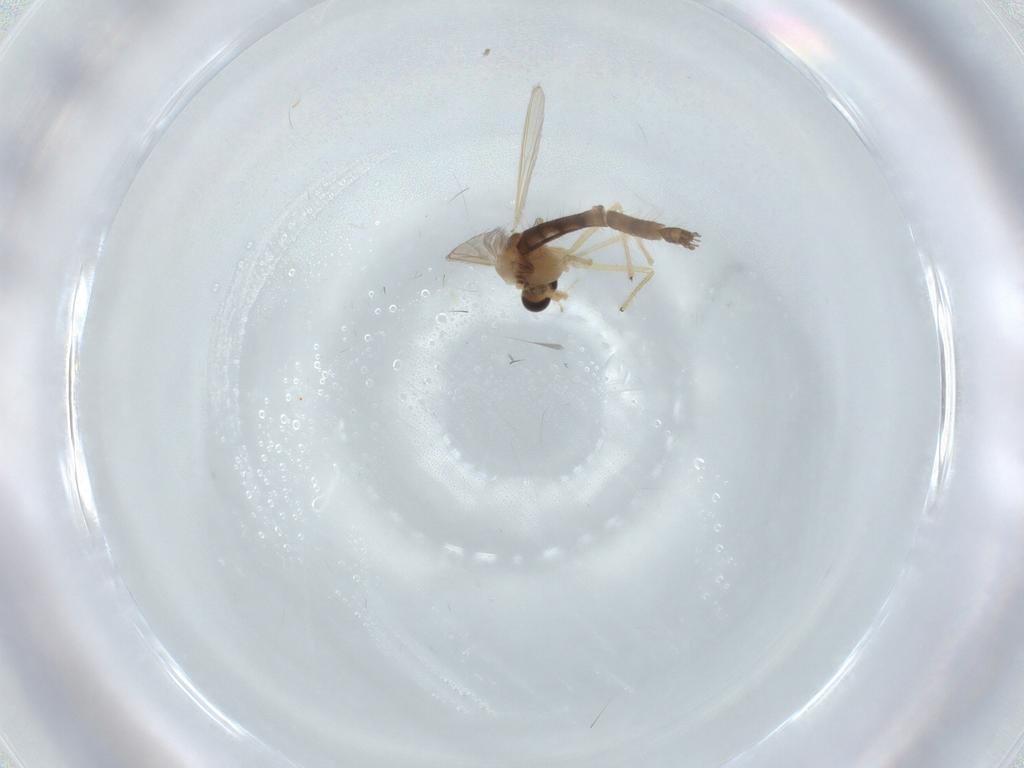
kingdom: Animalia
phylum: Arthropoda
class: Insecta
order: Diptera
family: Chironomidae
